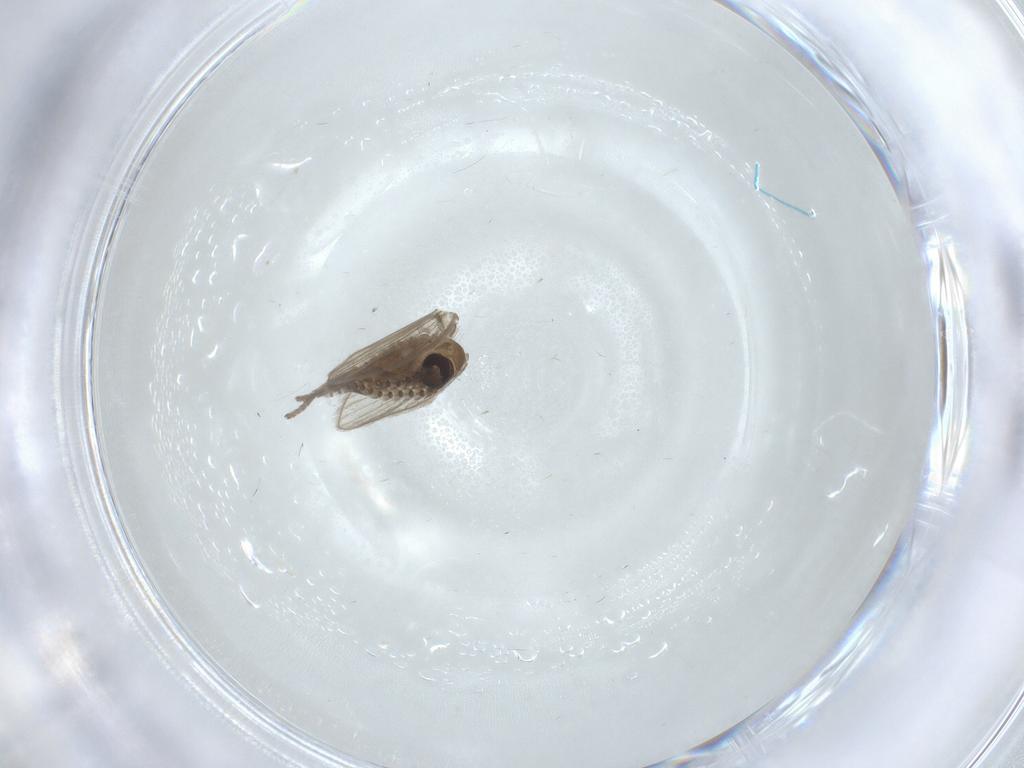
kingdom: Animalia
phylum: Arthropoda
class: Insecta
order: Diptera
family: Psychodidae
